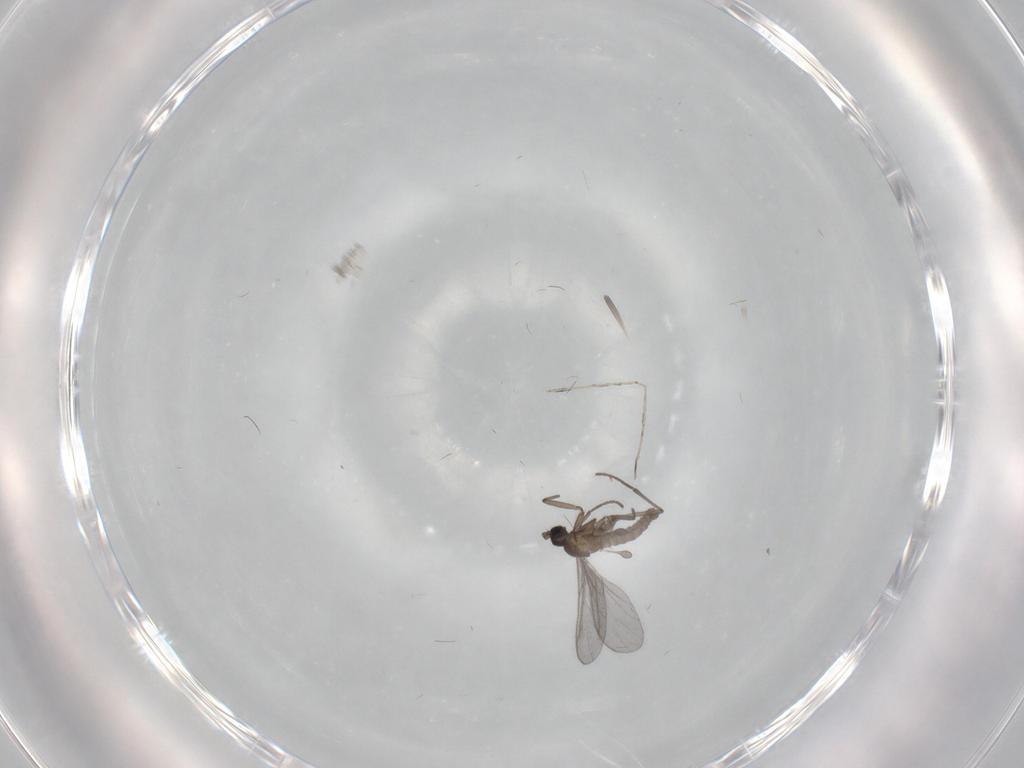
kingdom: Animalia
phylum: Arthropoda
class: Insecta
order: Diptera
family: Sciaridae
